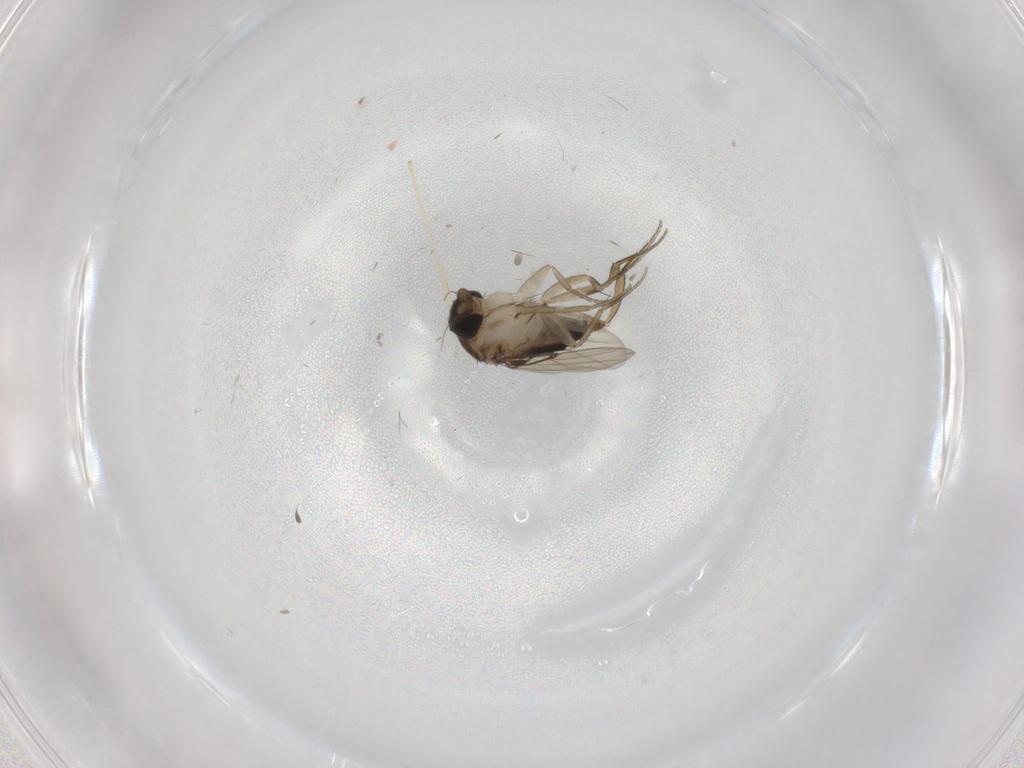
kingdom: Animalia
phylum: Arthropoda
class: Insecta
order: Diptera
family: Phoridae
